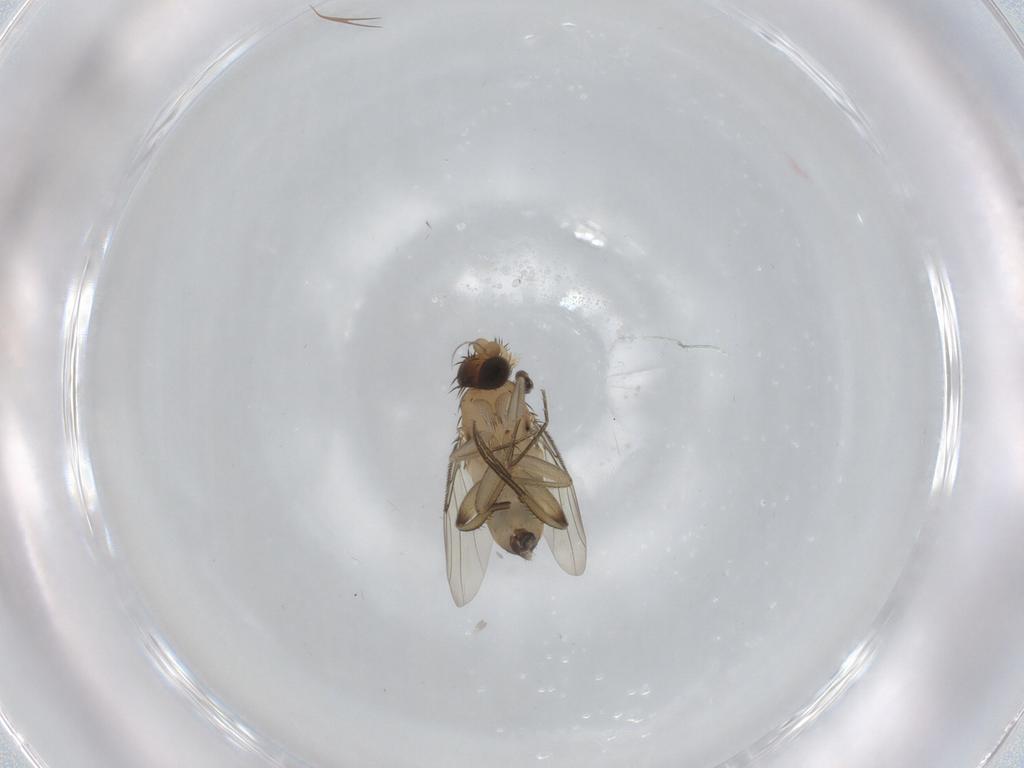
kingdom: Animalia
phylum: Arthropoda
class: Insecta
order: Diptera
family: Phoridae
